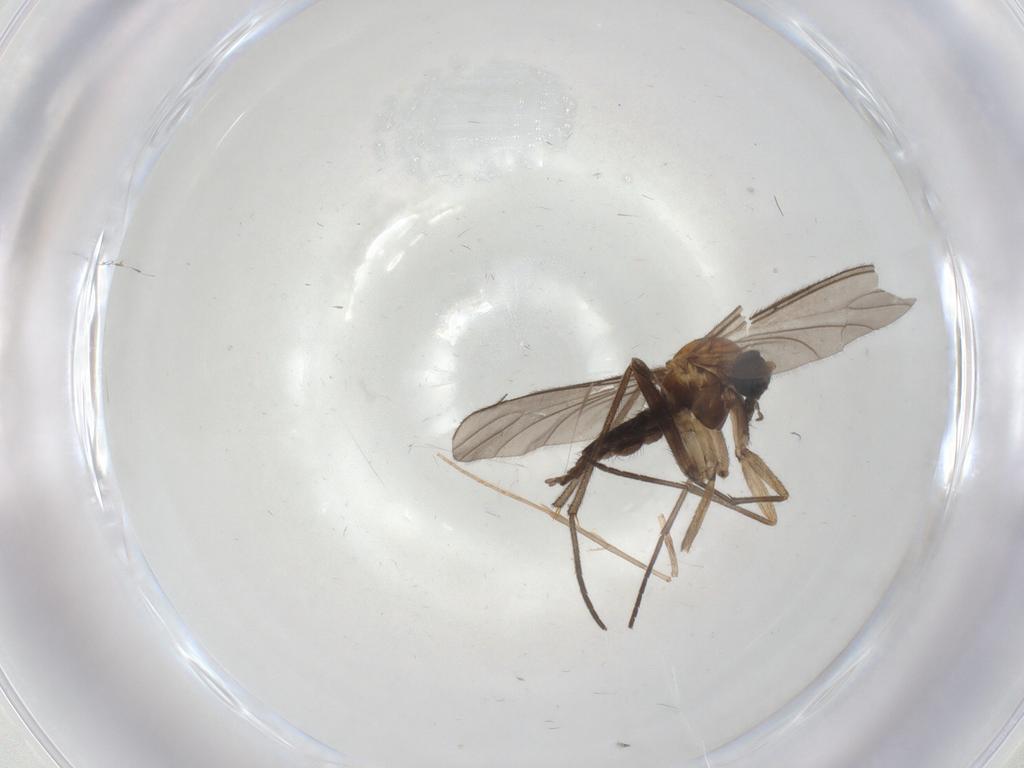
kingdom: Animalia
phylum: Arthropoda
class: Insecta
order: Diptera
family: Sciaridae
